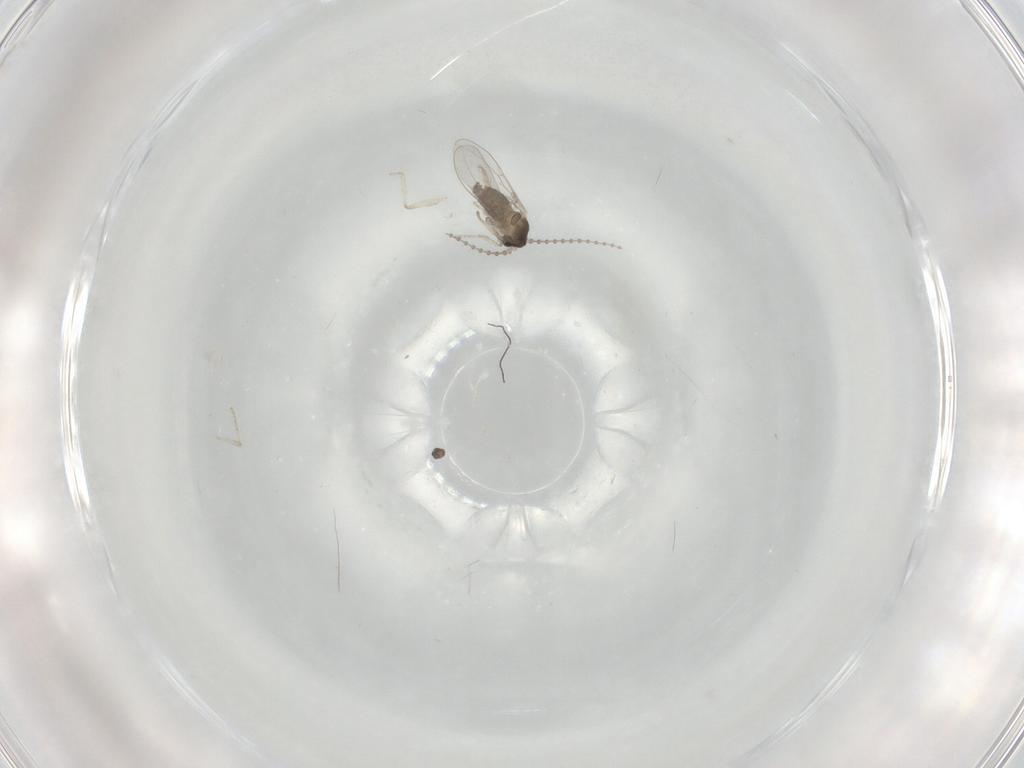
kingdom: Animalia
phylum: Arthropoda
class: Insecta
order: Diptera
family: Cecidomyiidae
